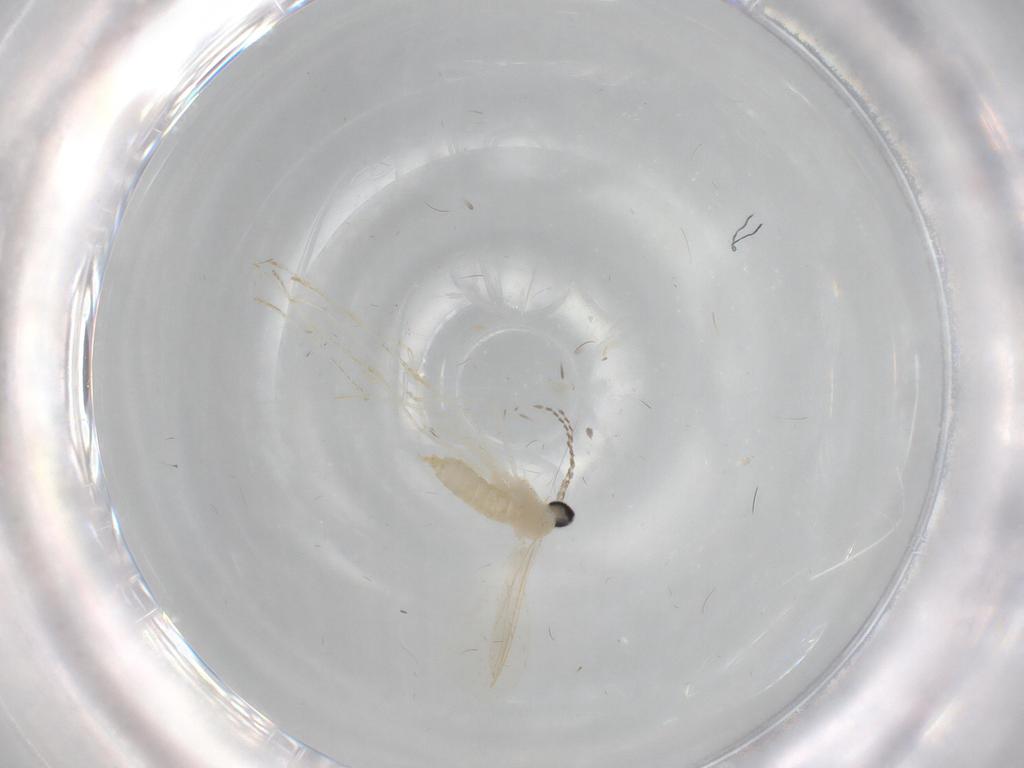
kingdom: Animalia
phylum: Arthropoda
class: Insecta
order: Diptera
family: Cecidomyiidae
